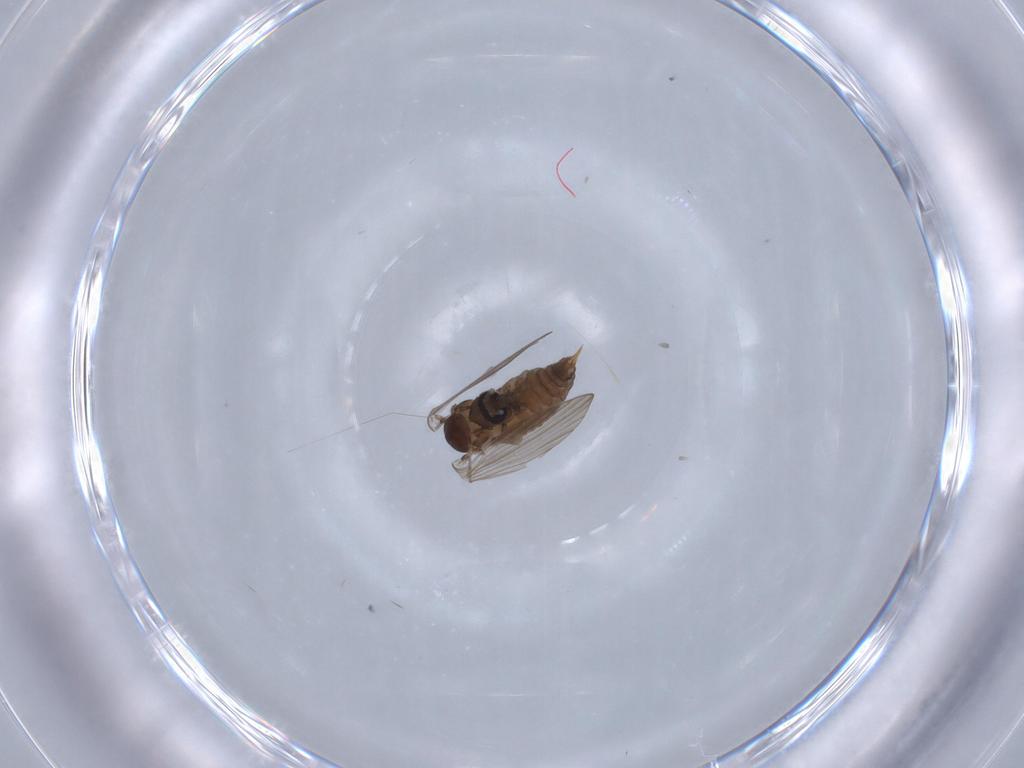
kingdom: Animalia
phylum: Arthropoda
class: Insecta
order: Diptera
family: Psychodidae
